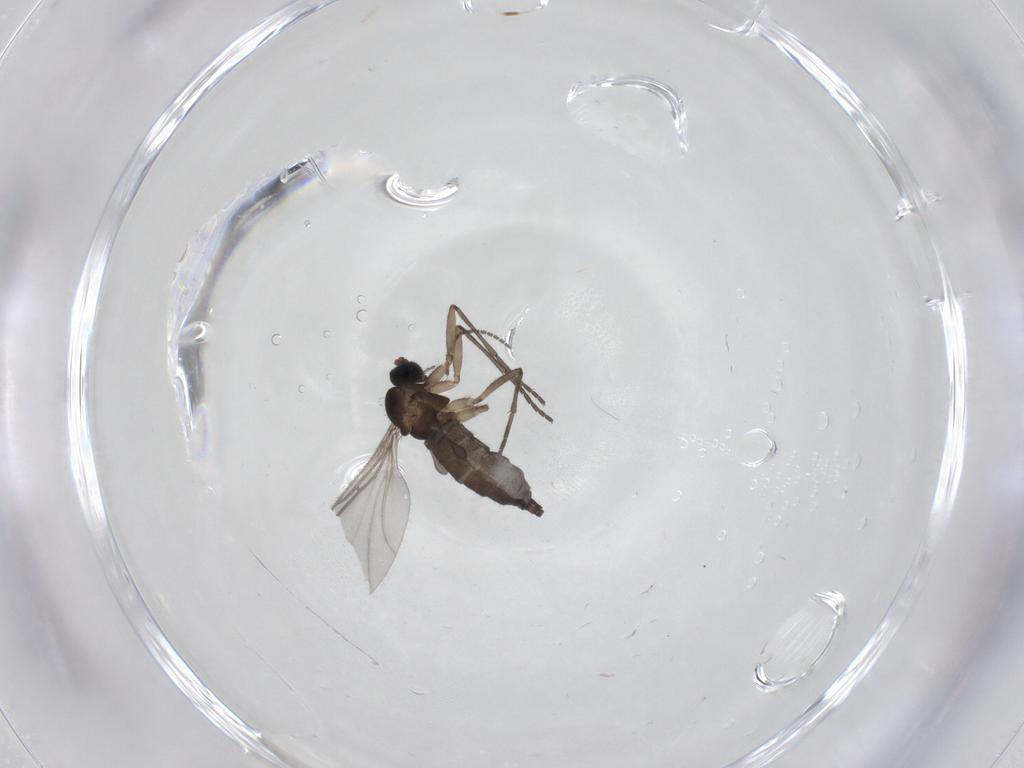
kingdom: Animalia
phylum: Arthropoda
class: Insecta
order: Diptera
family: Sciaridae
